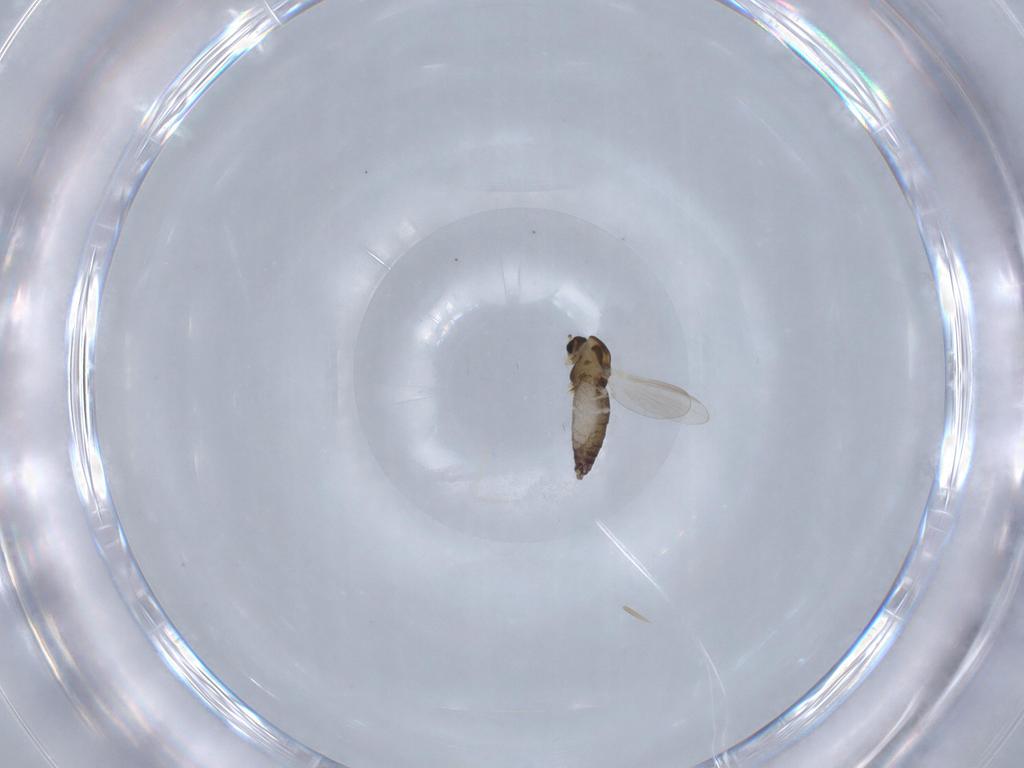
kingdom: Animalia
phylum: Arthropoda
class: Insecta
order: Diptera
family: Chironomidae
